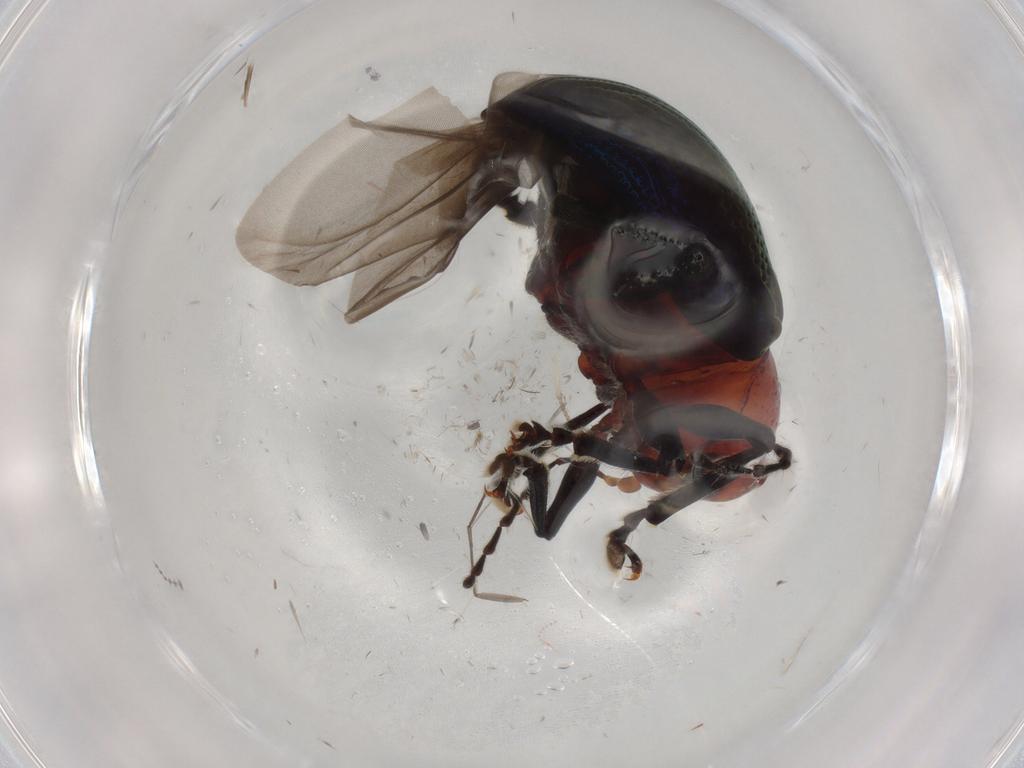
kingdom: Animalia
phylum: Arthropoda
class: Insecta
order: Coleoptera
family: Chrysomelidae
